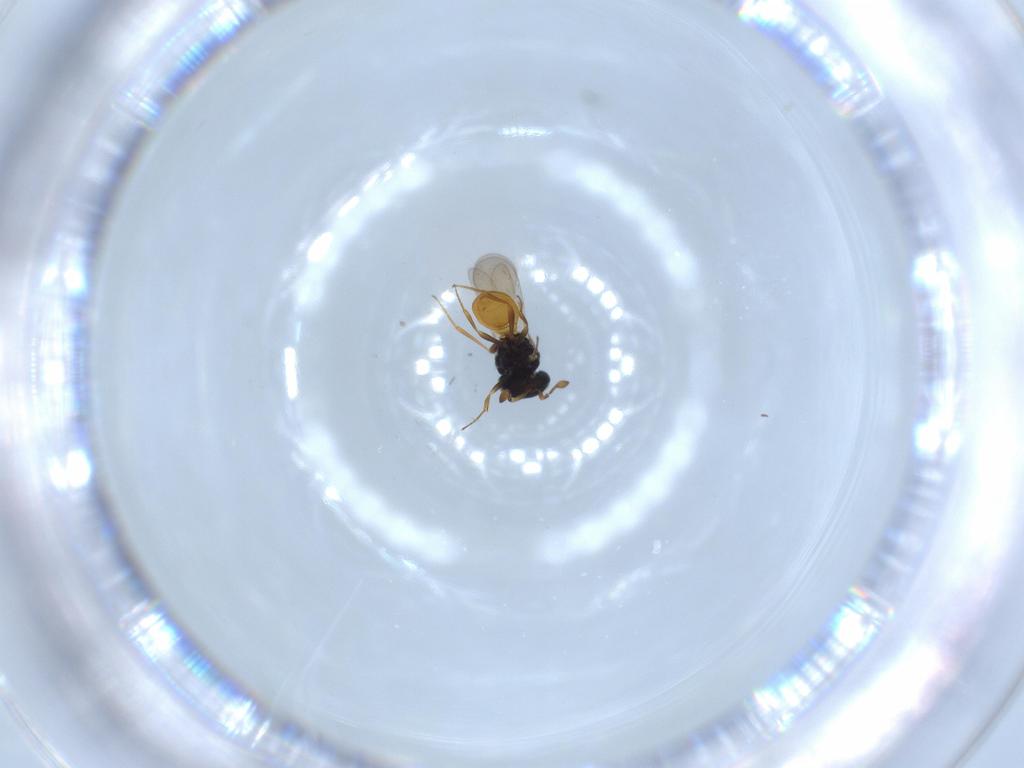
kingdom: Animalia
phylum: Arthropoda
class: Insecta
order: Hymenoptera
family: Scelionidae
